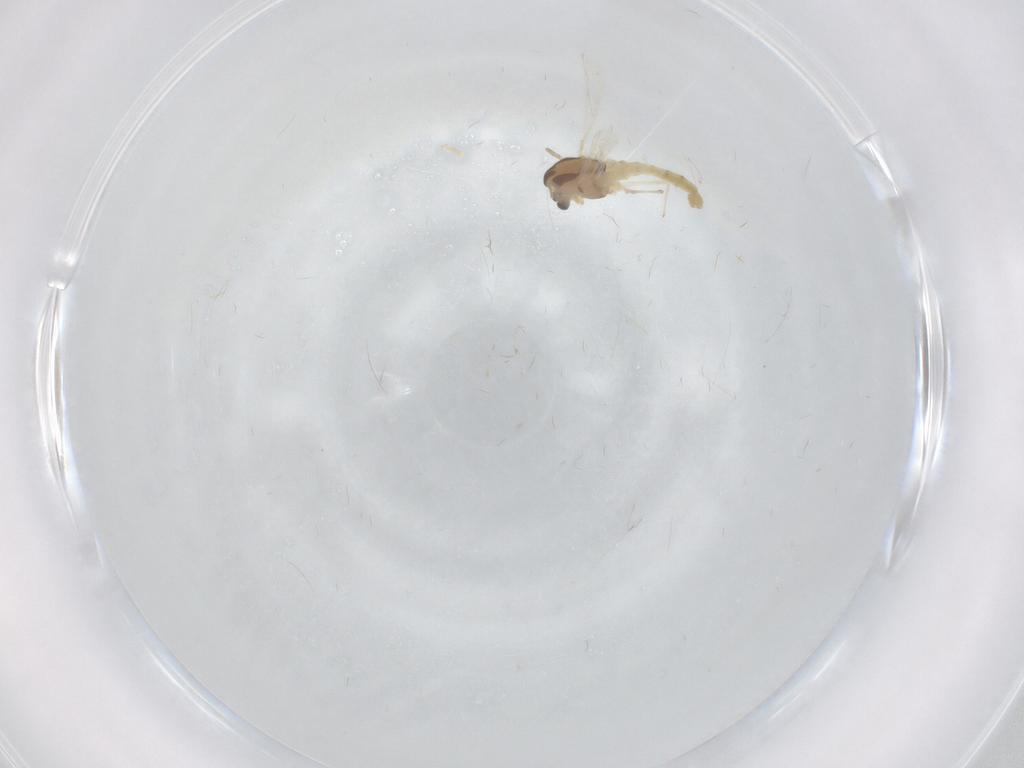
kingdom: Animalia
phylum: Arthropoda
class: Insecta
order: Diptera
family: Chironomidae
